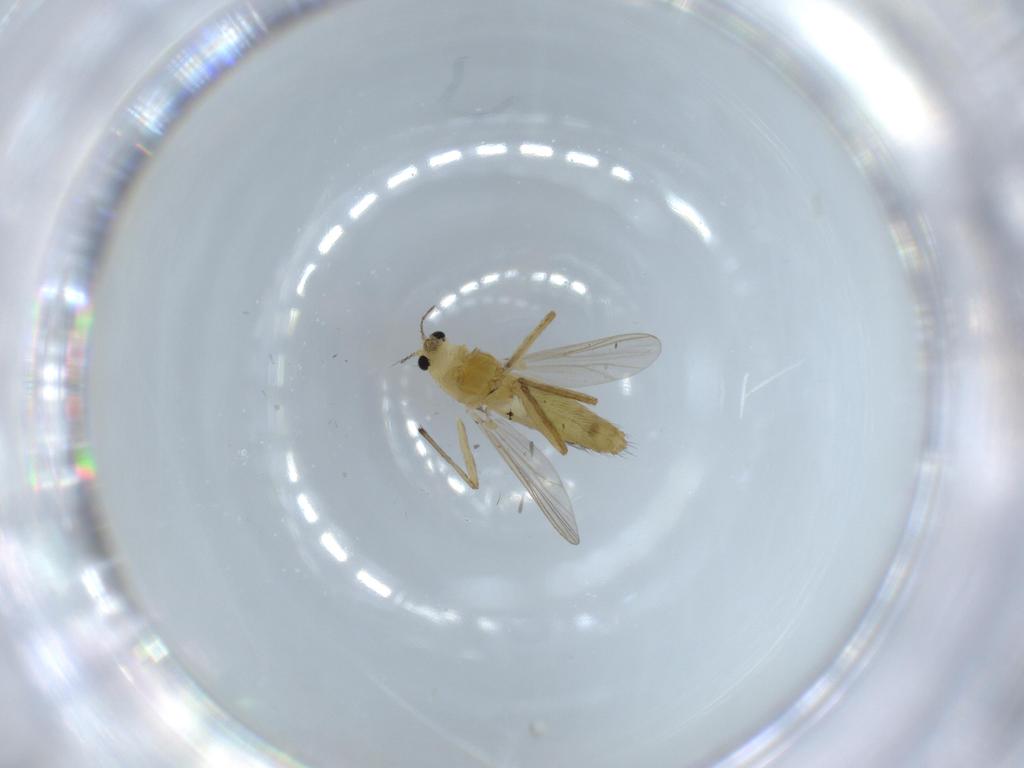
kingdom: Animalia
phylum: Arthropoda
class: Insecta
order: Diptera
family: Chironomidae
